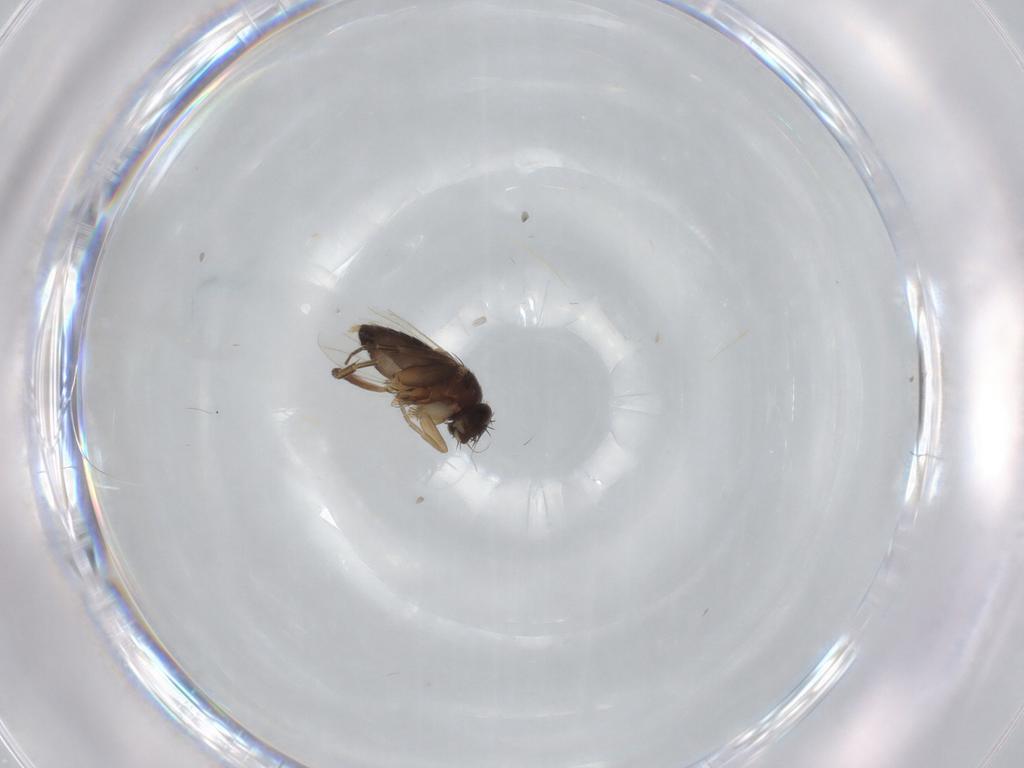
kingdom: Animalia
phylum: Arthropoda
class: Insecta
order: Diptera
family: Phoridae
